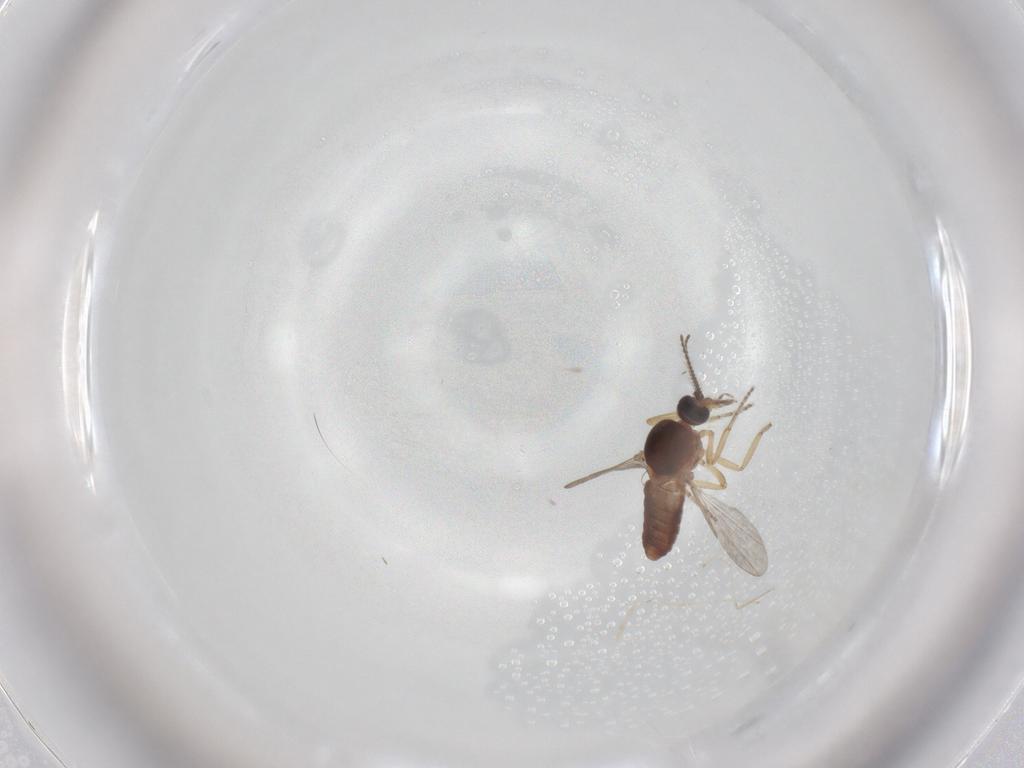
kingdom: Animalia
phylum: Arthropoda
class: Insecta
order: Diptera
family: Ceratopogonidae
